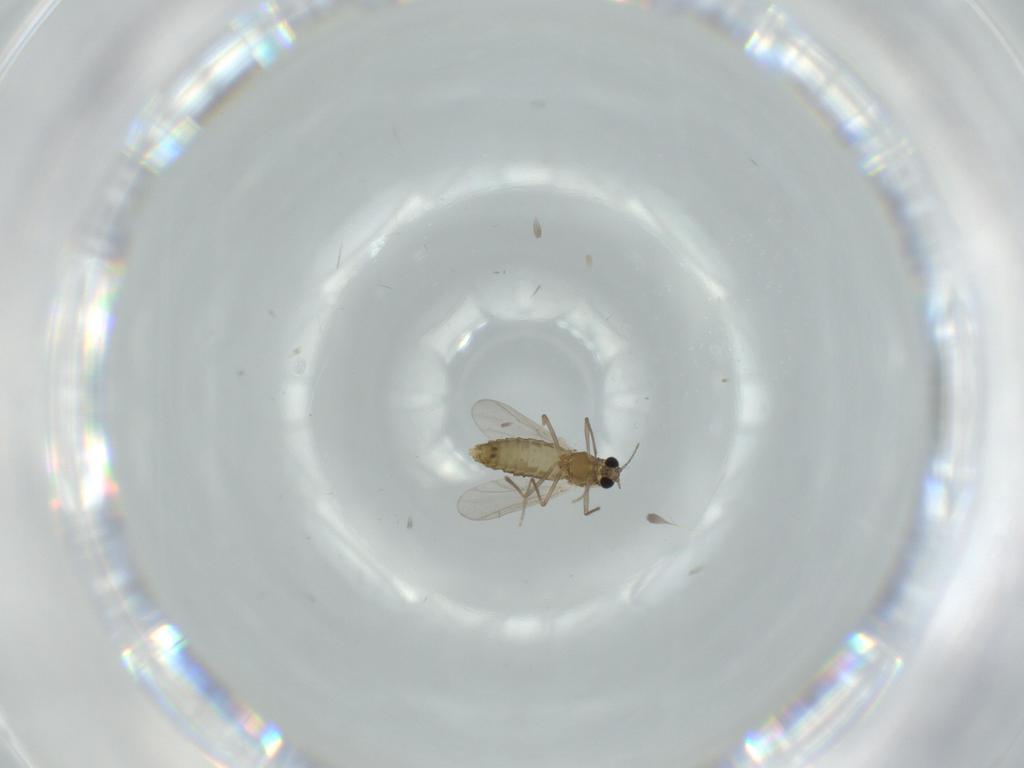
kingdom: Animalia
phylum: Arthropoda
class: Insecta
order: Diptera
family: Chironomidae
